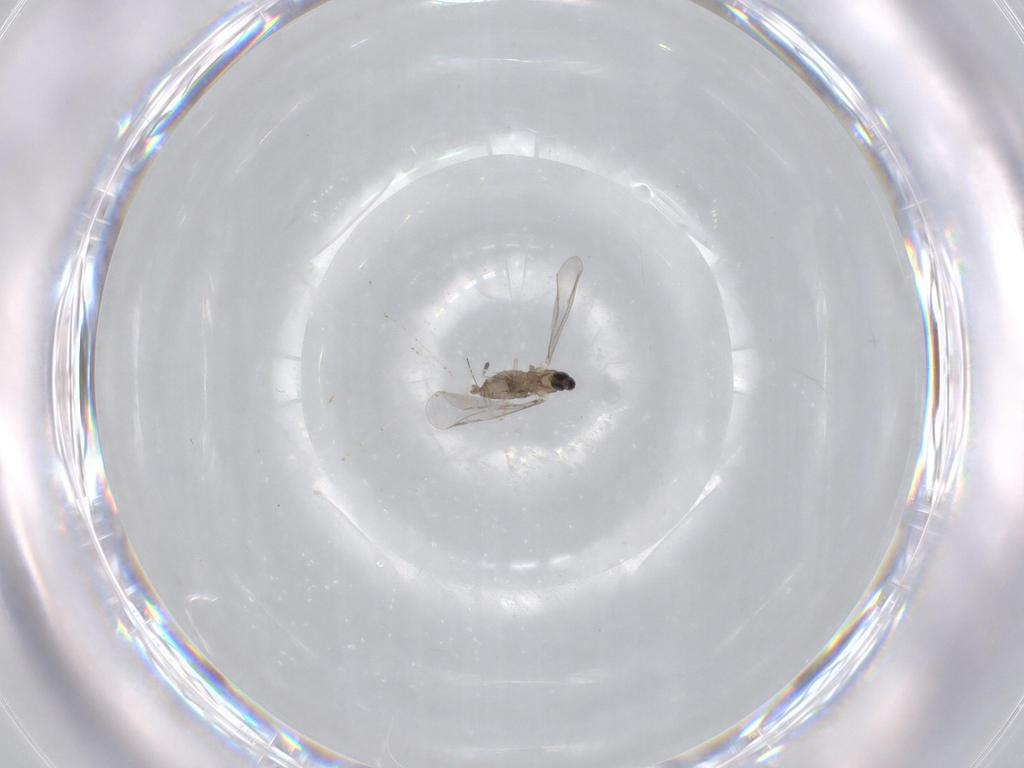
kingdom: Animalia
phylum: Arthropoda
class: Insecta
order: Diptera
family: Cecidomyiidae
